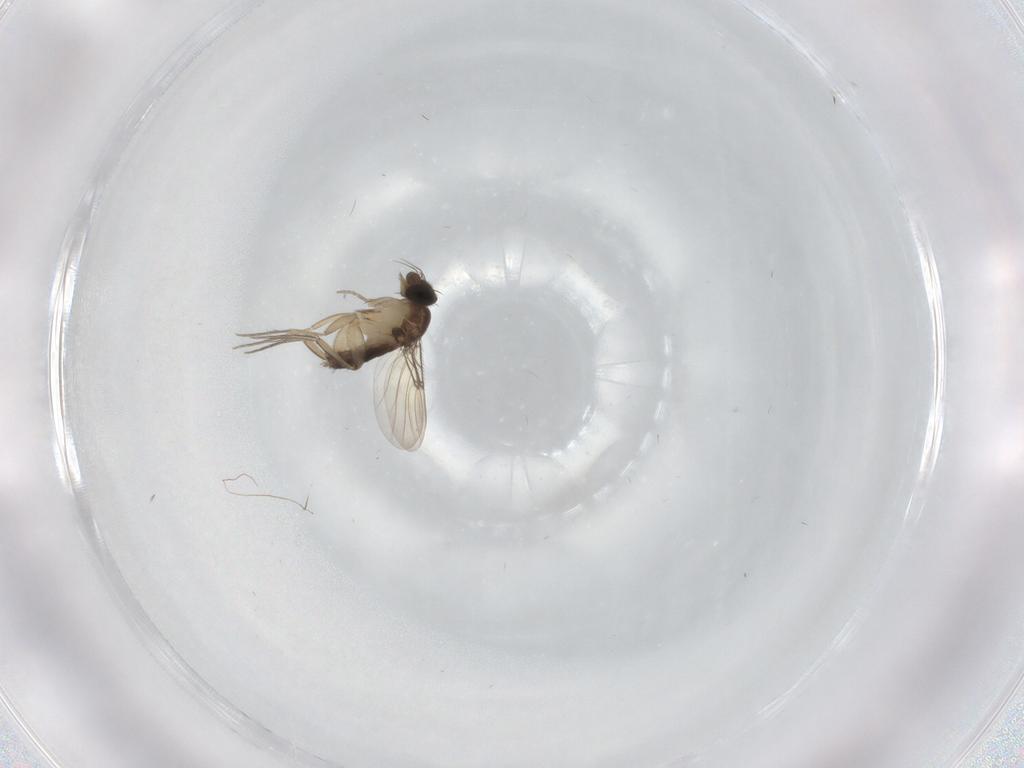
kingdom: Animalia
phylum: Arthropoda
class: Insecta
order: Diptera
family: Phoridae
